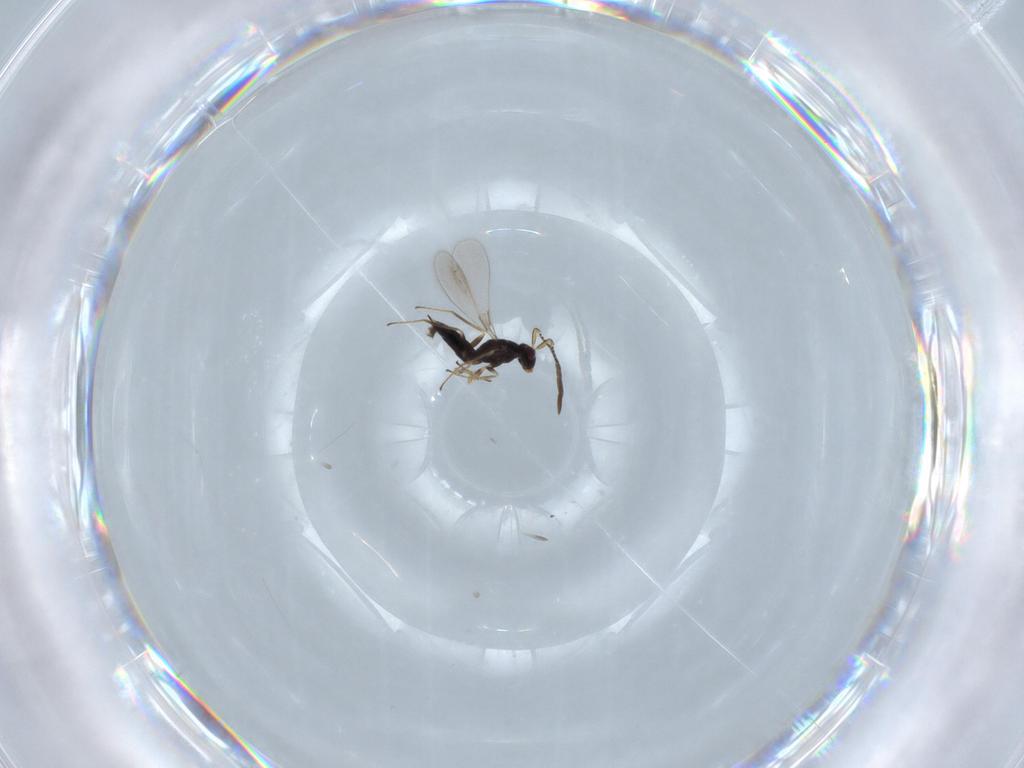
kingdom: Animalia
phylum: Arthropoda
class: Insecta
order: Hymenoptera
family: Mymaridae
